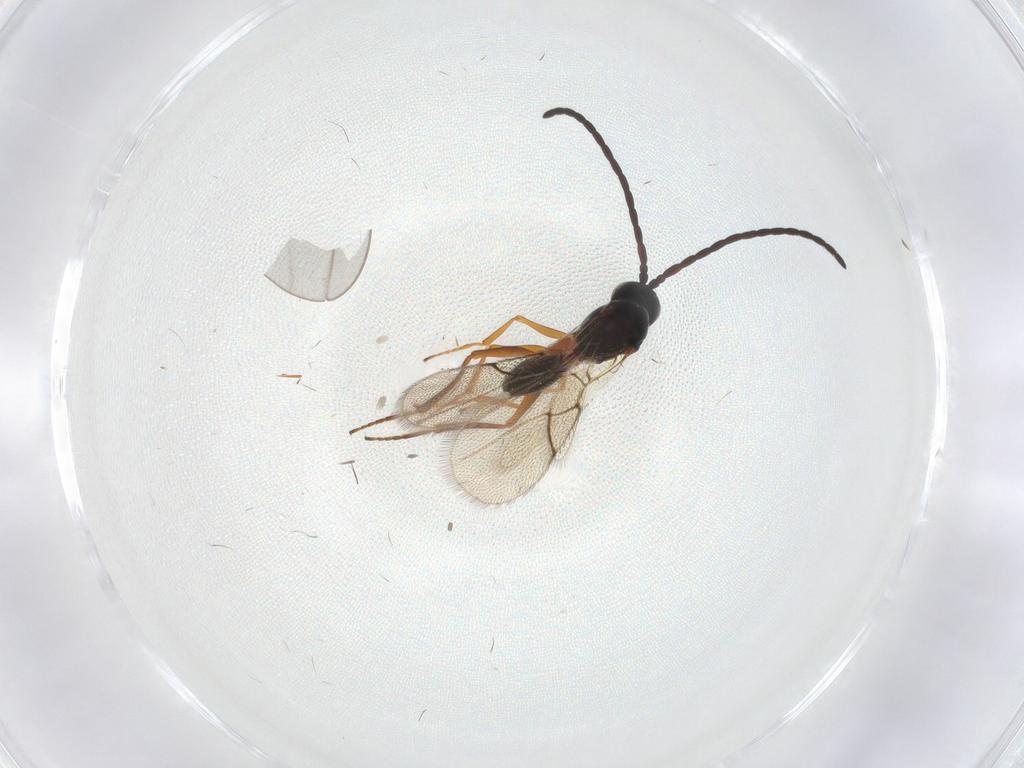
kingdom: Animalia
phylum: Arthropoda
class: Insecta
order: Hymenoptera
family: Figitidae
